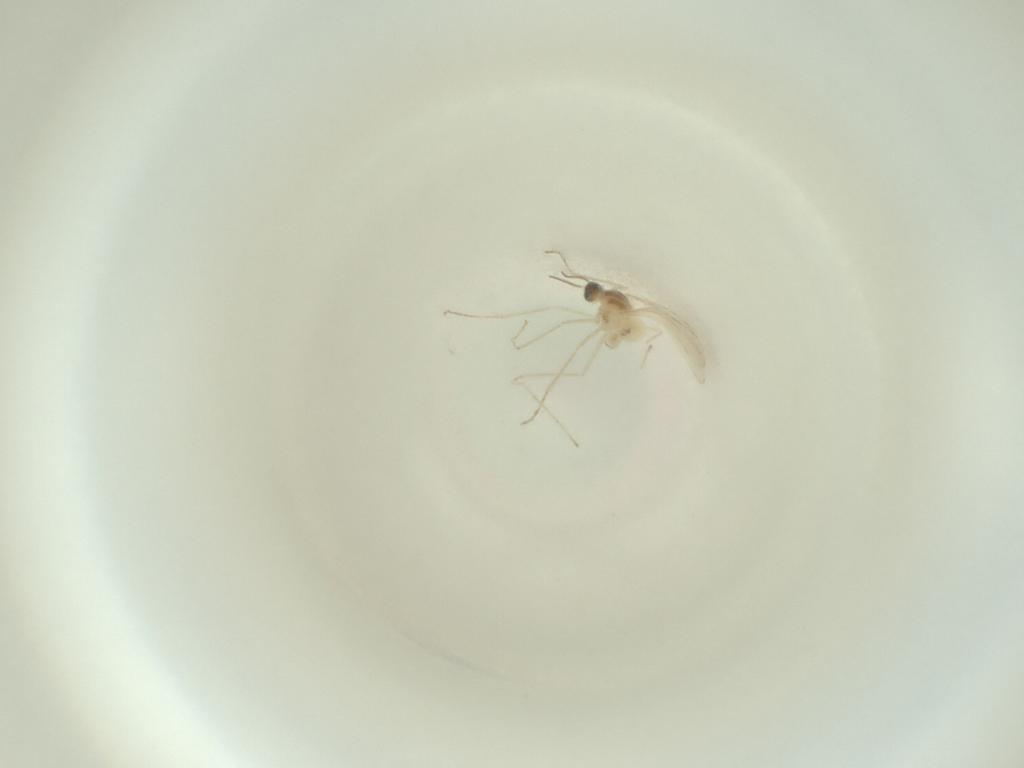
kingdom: Animalia
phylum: Arthropoda
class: Insecta
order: Diptera
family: Cecidomyiidae
